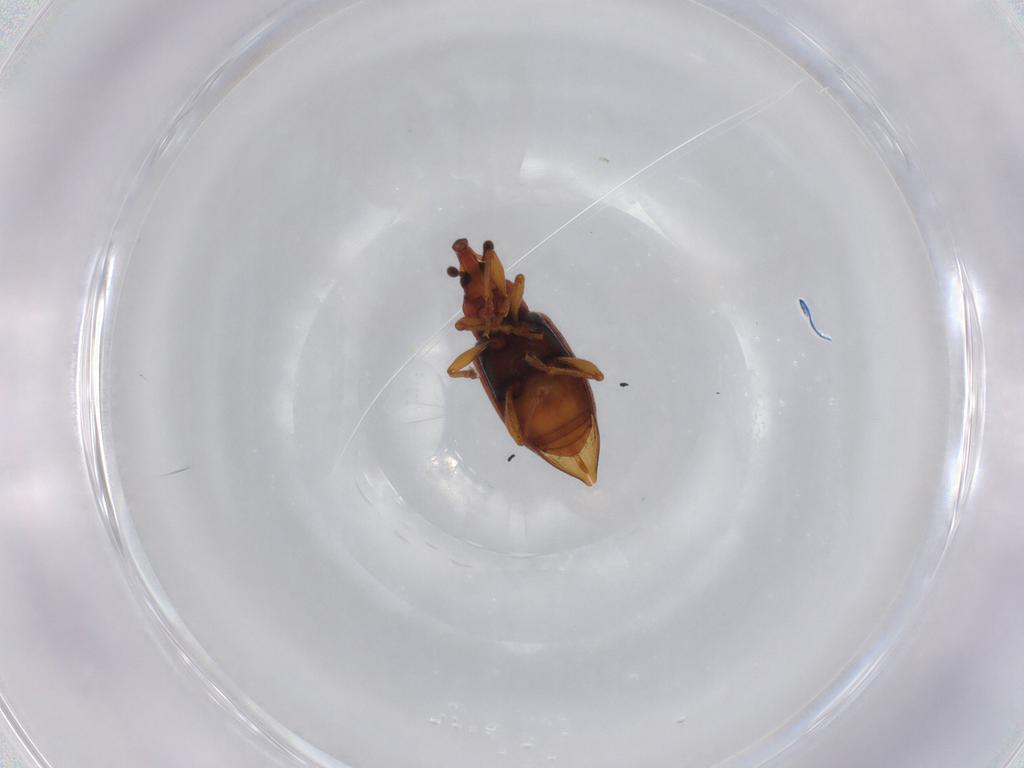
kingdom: Animalia
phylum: Arthropoda
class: Insecta
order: Coleoptera
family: Curculionidae
